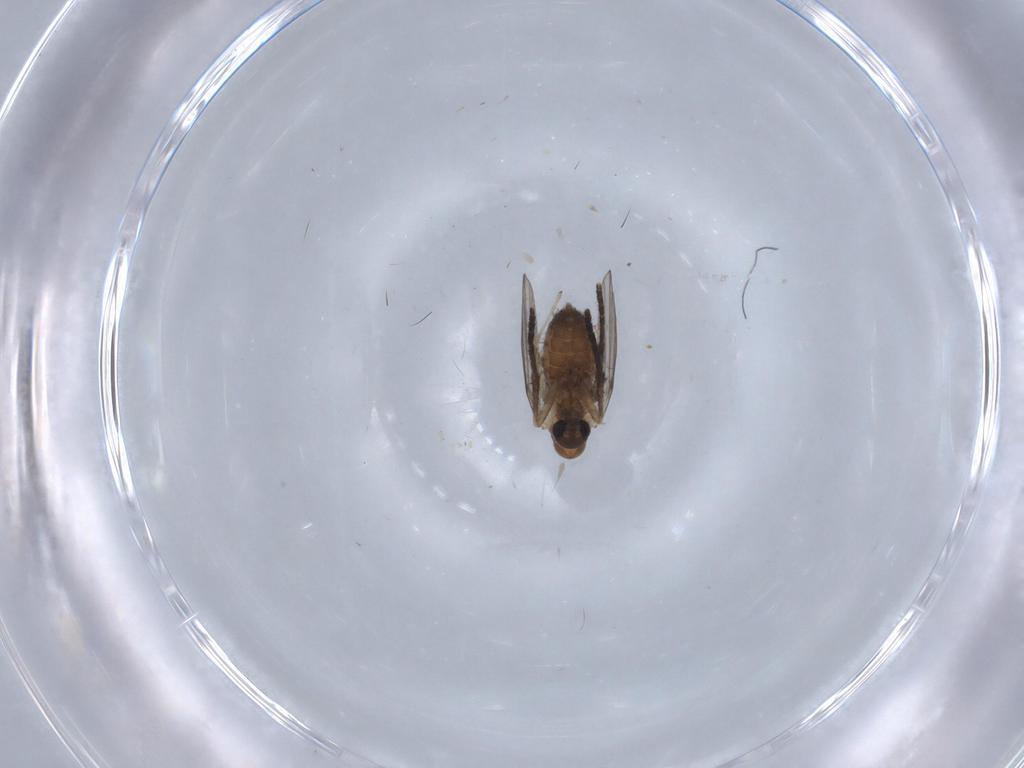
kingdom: Animalia
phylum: Arthropoda
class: Insecta
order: Diptera
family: Chironomidae
